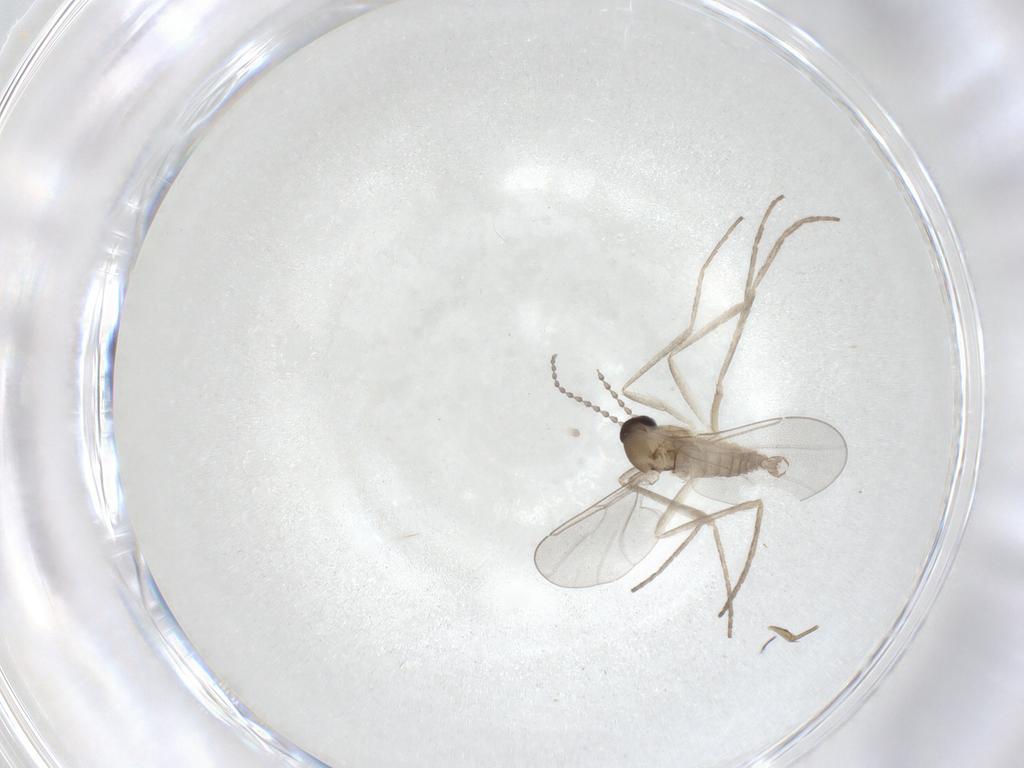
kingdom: Animalia
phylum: Arthropoda
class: Insecta
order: Diptera
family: Cecidomyiidae
